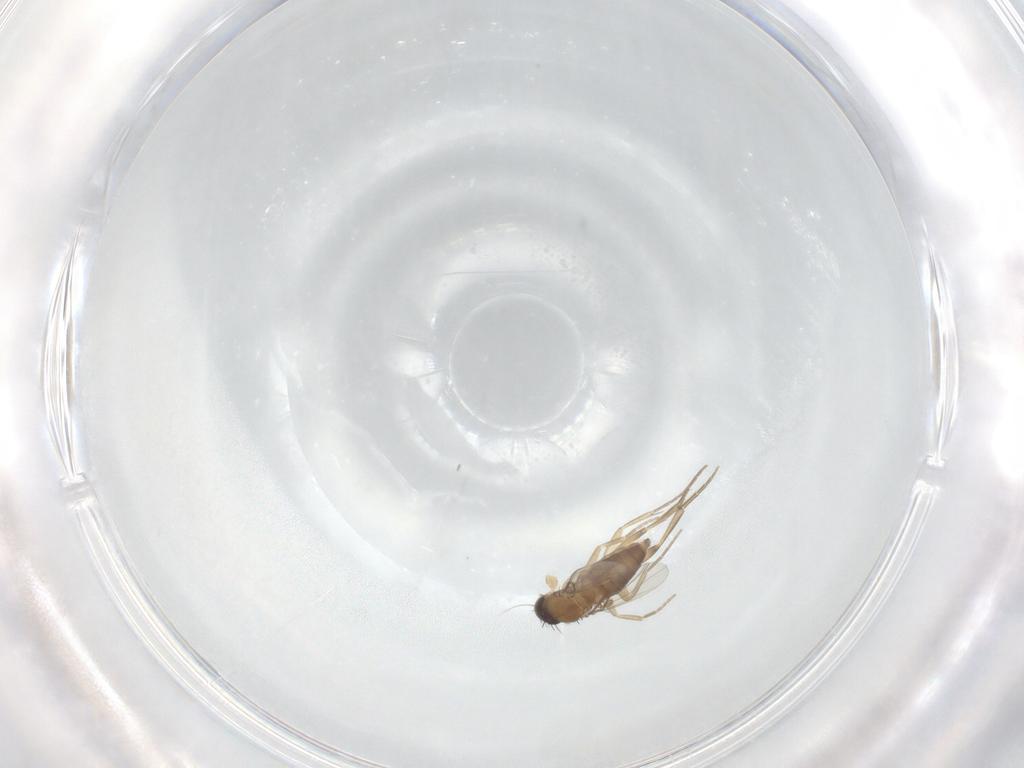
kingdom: Animalia
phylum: Arthropoda
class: Insecta
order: Diptera
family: Phoridae
